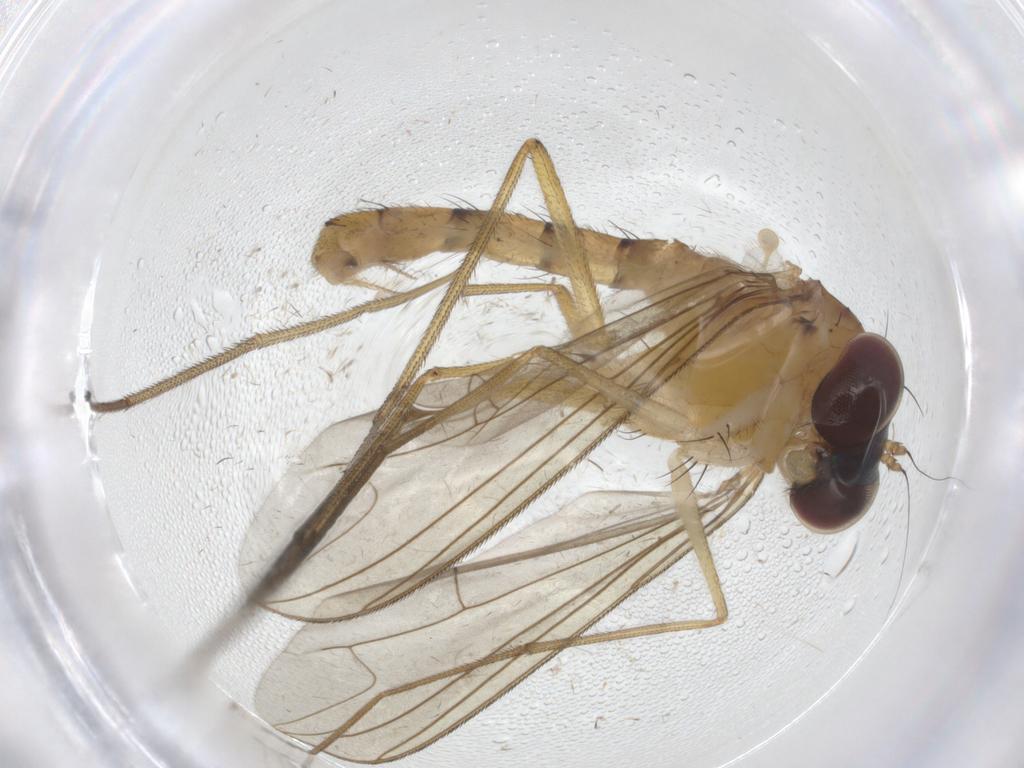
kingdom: Animalia
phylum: Arthropoda
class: Insecta
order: Diptera
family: Dolichopodidae
